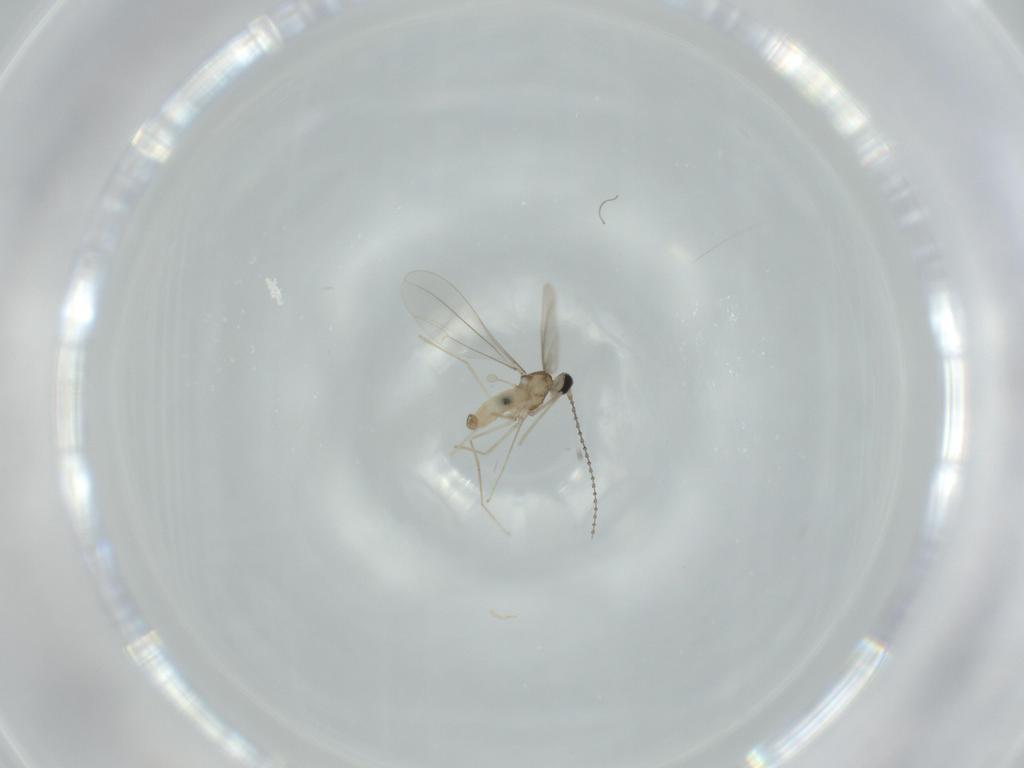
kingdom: Animalia
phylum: Arthropoda
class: Insecta
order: Diptera
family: Cecidomyiidae
